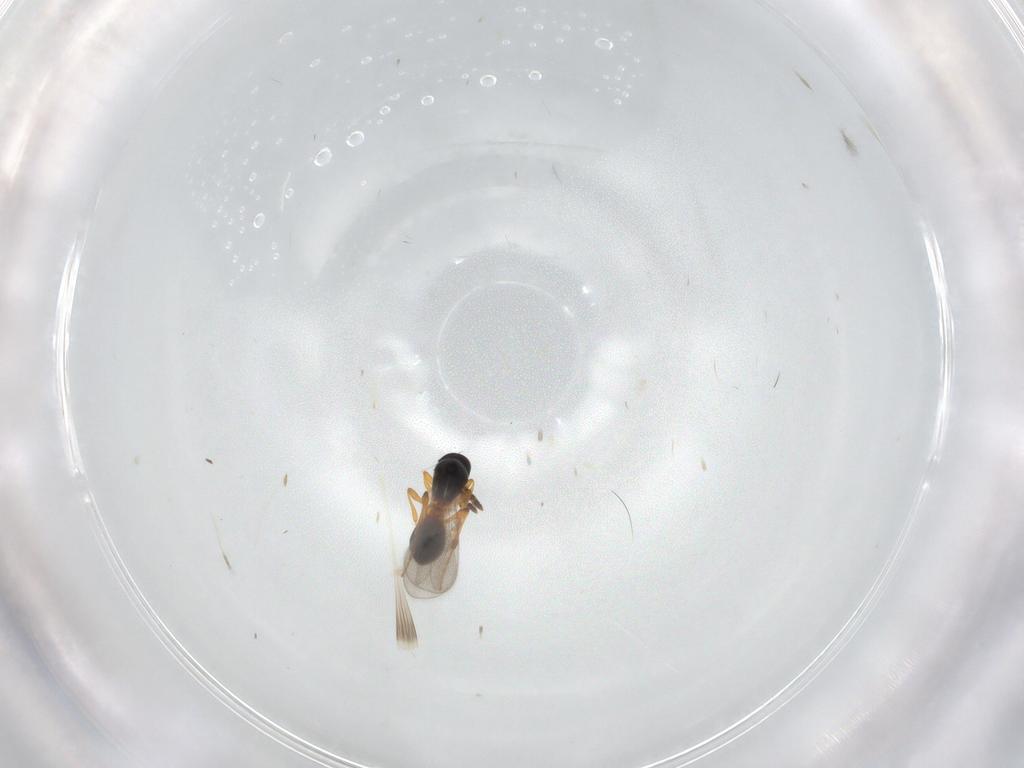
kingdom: Animalia
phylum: Arthropoda
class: Insecta
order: Hymenoptera
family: Platygastridae
